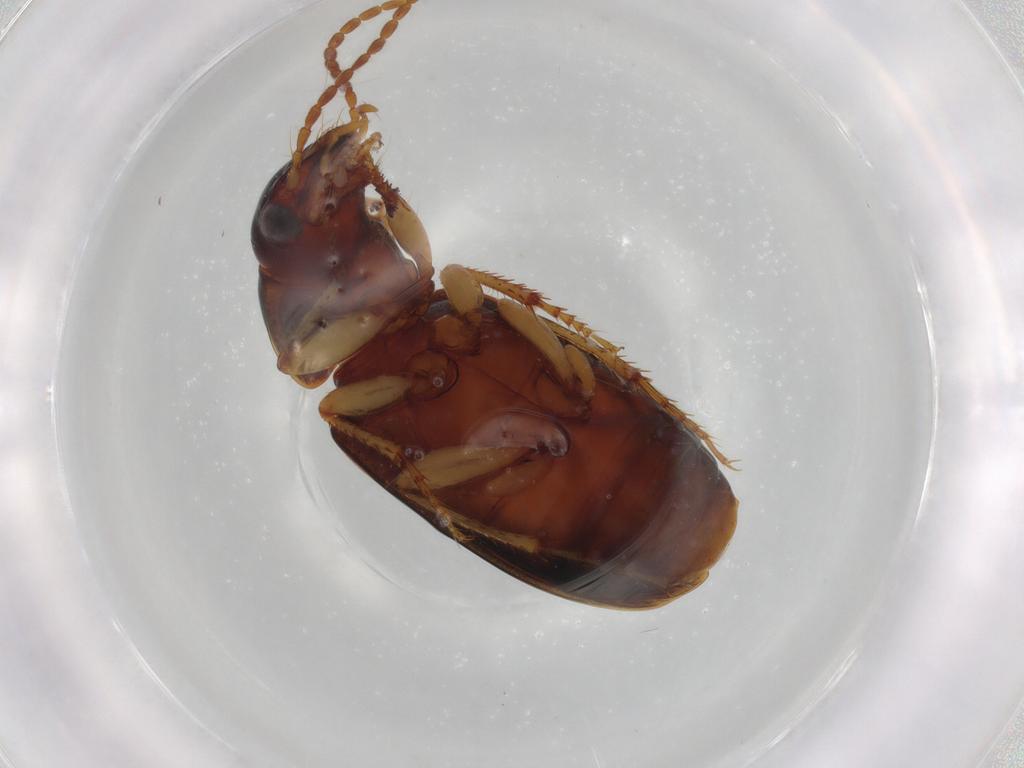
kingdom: Animalia
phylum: Arthropoda
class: Insecta
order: Coleoptera
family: Carabidae
